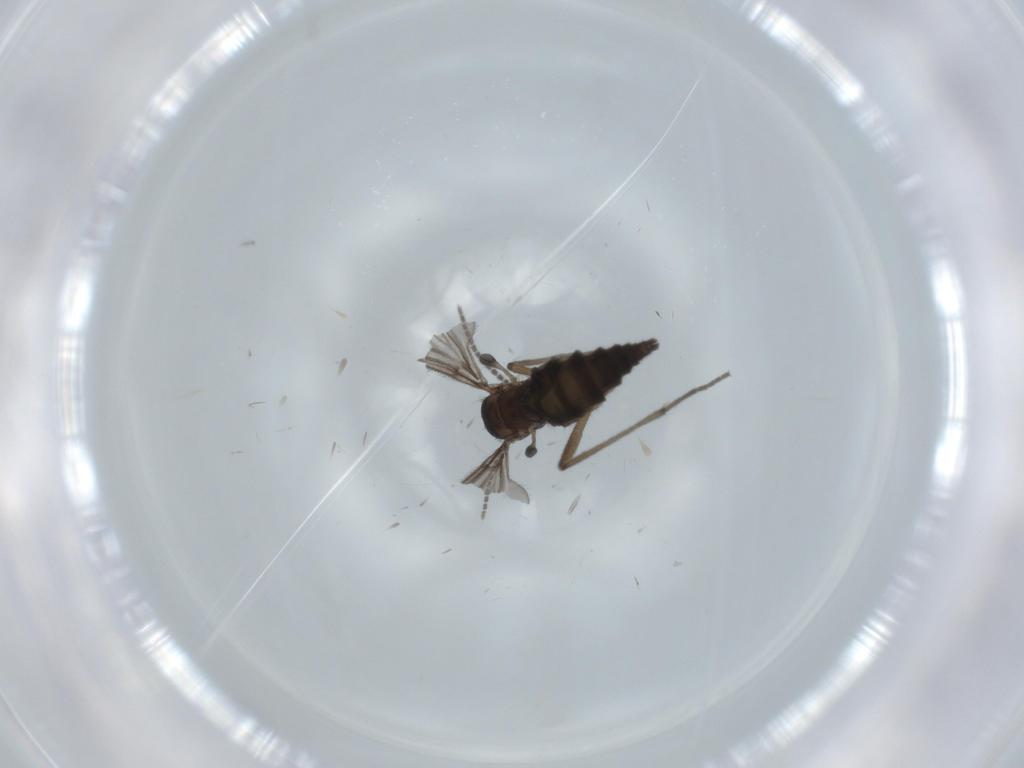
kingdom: Animalia
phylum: Arthropoda
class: Insecta
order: Diptera
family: Sciaridae
